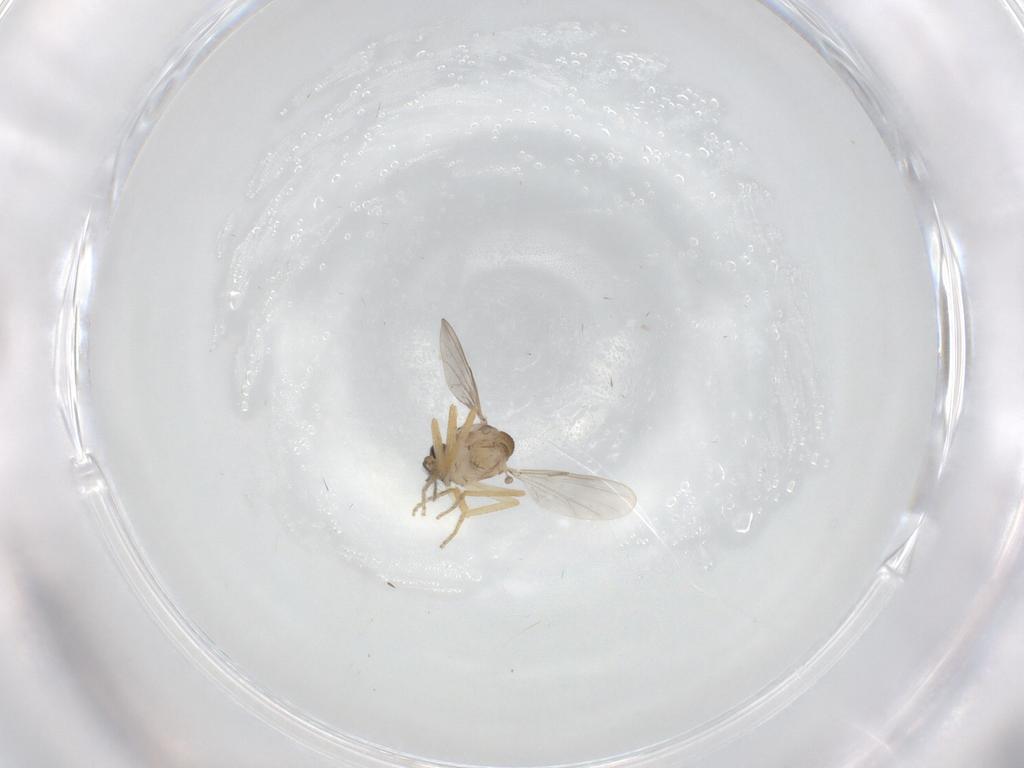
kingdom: Animalia
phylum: Arthropoda
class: Insecta
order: Diptera
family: Ceratopogonidae
